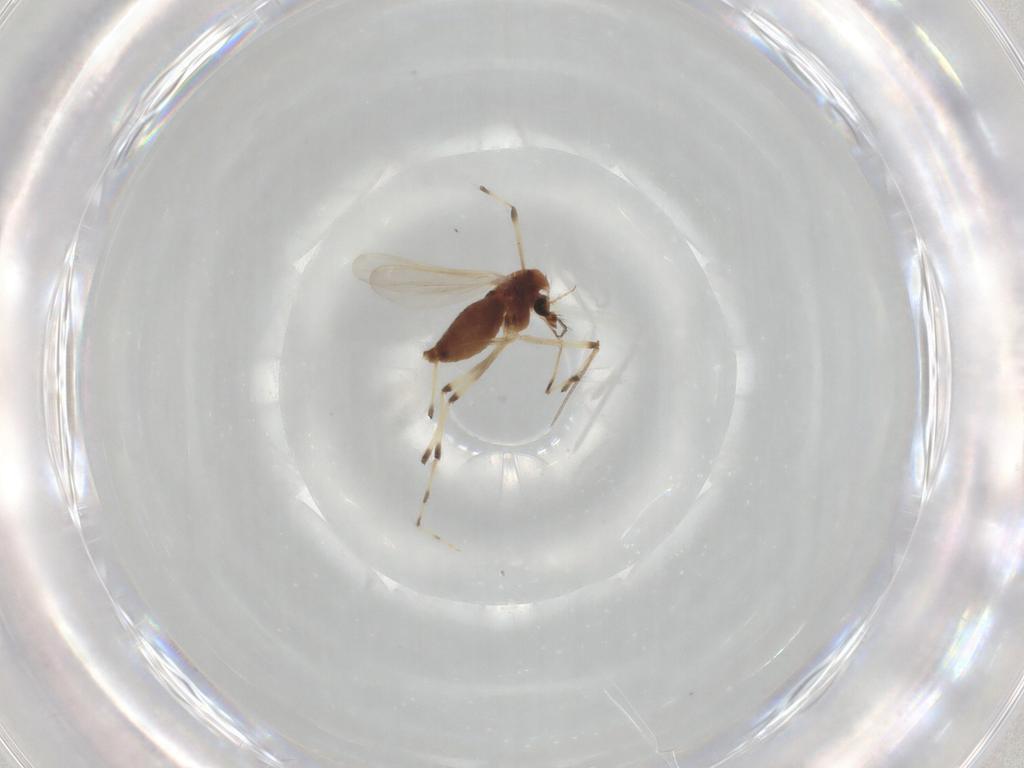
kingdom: Animalia
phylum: Arthropoda
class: Insecta
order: Diptera
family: Chironomidae
